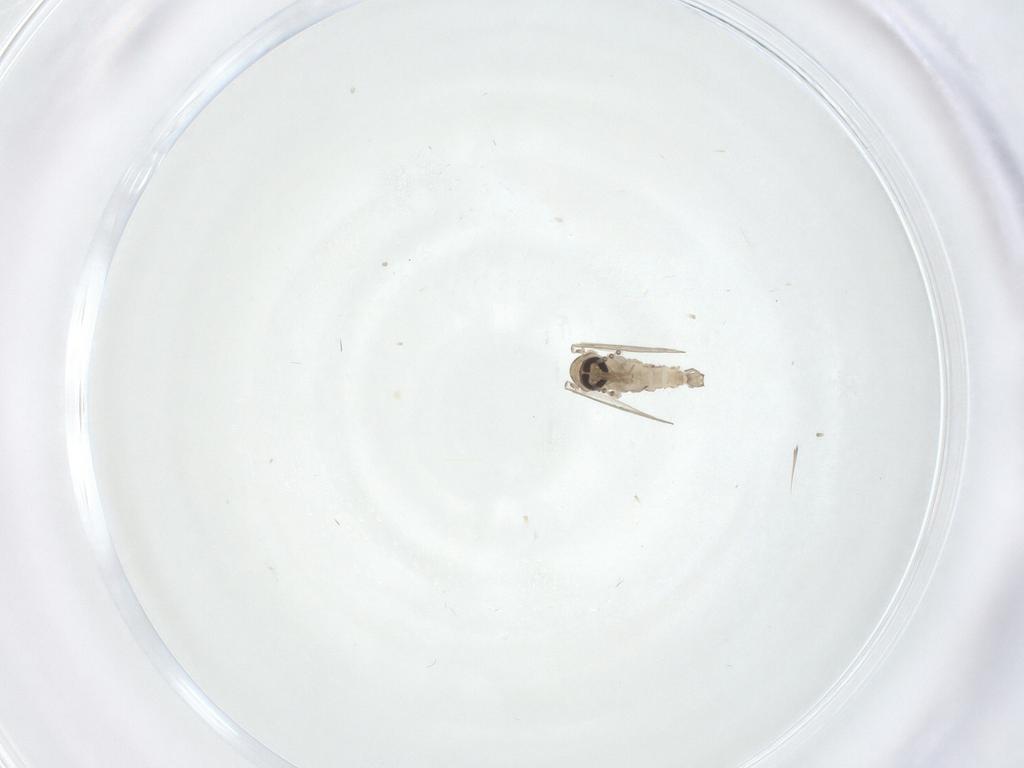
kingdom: Animalia
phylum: Arthropoda
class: Insecta
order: Diptera
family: Psychodidae
